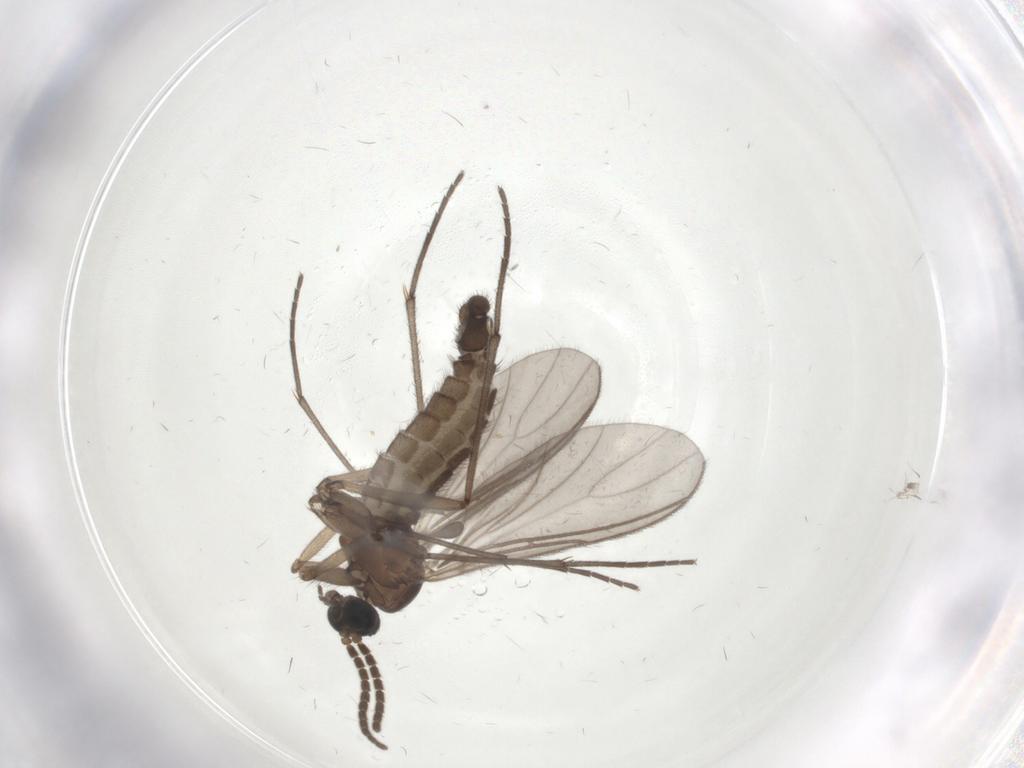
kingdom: Animalia
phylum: Arthropoda
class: Insecta
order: Diptera
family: Sciaridae
